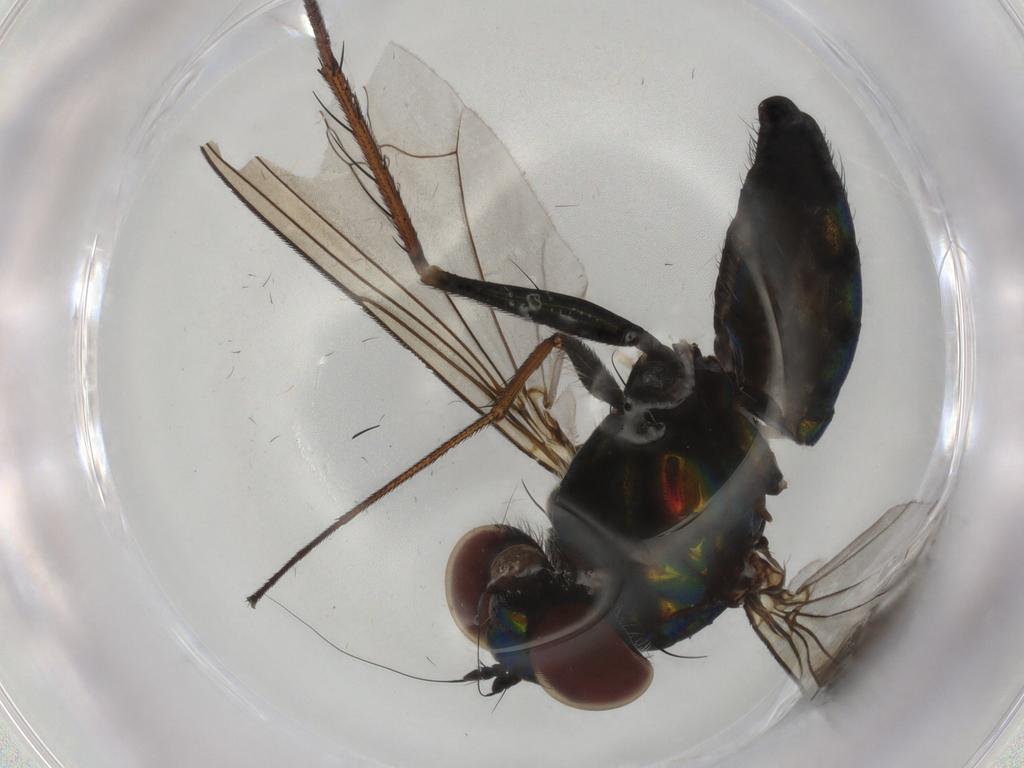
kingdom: Animalia
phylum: Arthropoda
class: Insecta
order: Diptera
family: Dolichopodidae
